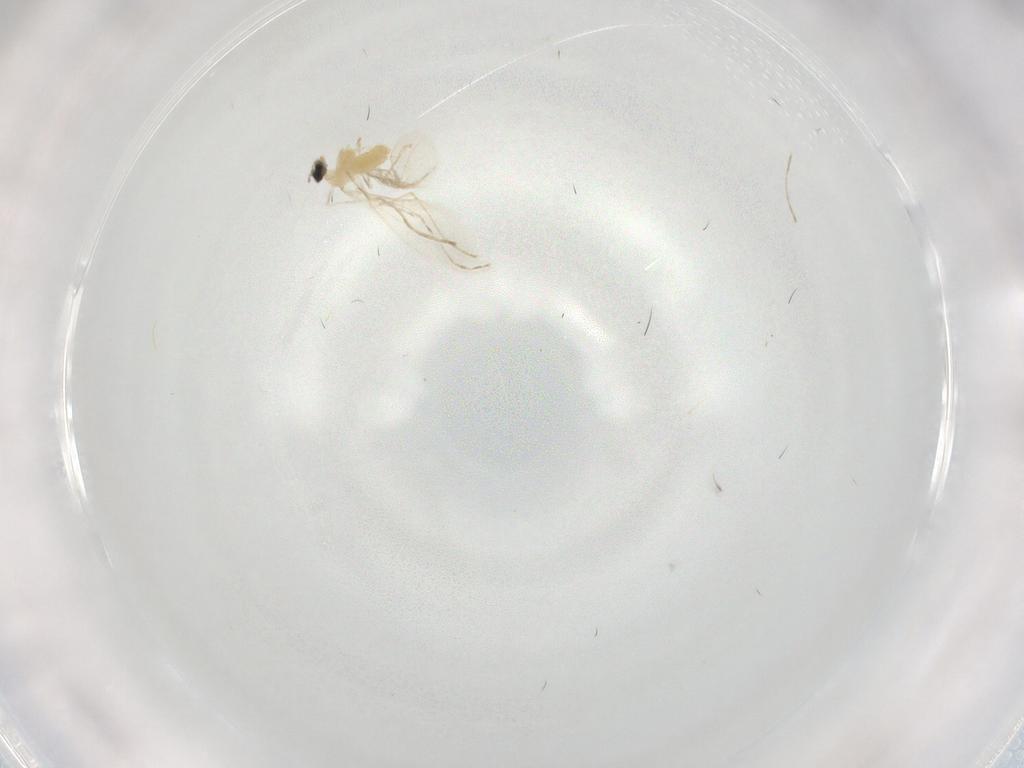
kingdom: Animalia
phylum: Arthropoda
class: Insecta
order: Diptera
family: Cecidomyiidae
